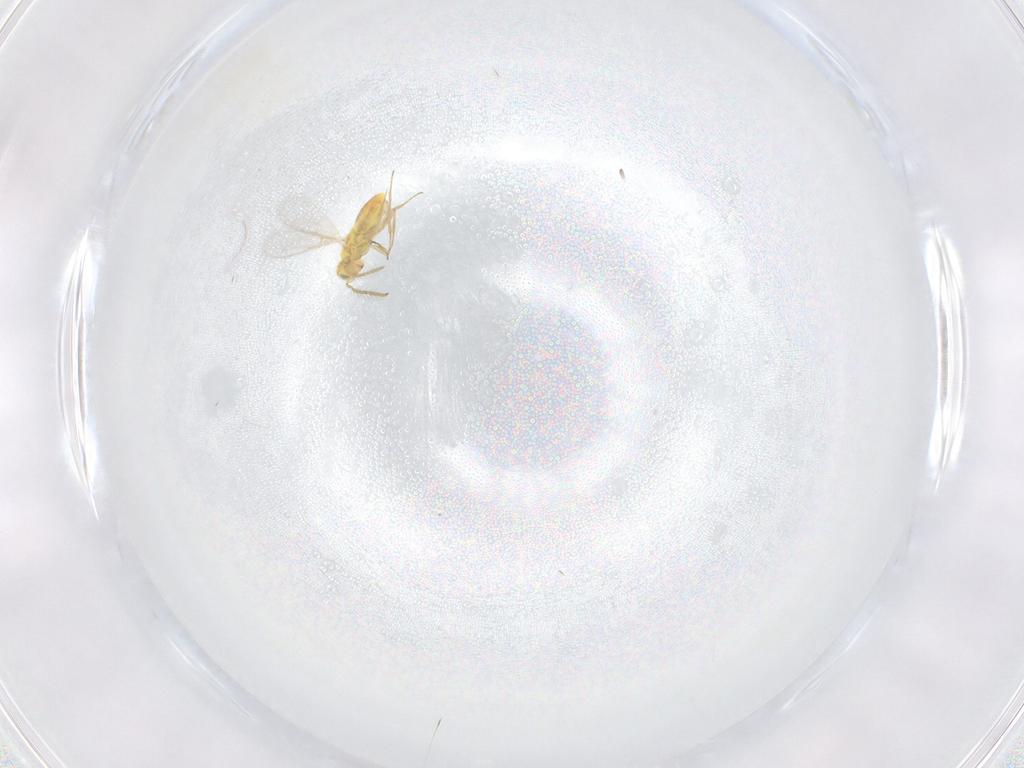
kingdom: Animalia
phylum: Arthropoda
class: Insecta
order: Hymenoptera
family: Aphelinidae
